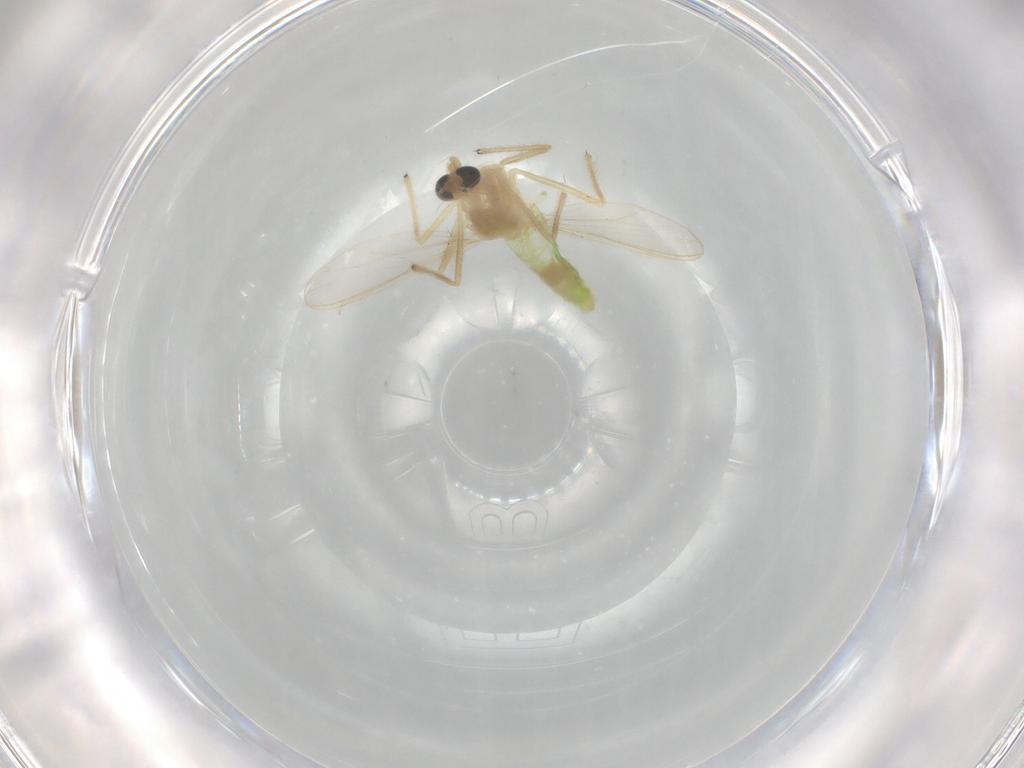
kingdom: Animalia
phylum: Arthropoda
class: Insecta
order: Diptera
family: Chironomidae
